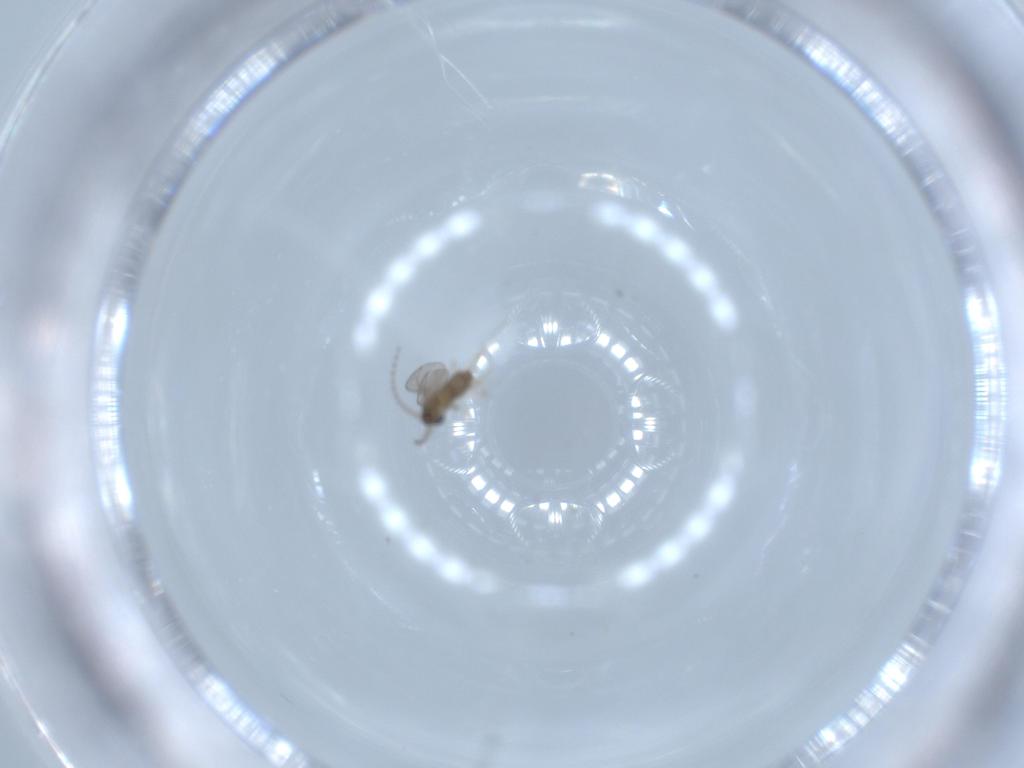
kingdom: Animalia
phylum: Arthropoda
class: Insecta
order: Diptera
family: Cecidomyiidae
